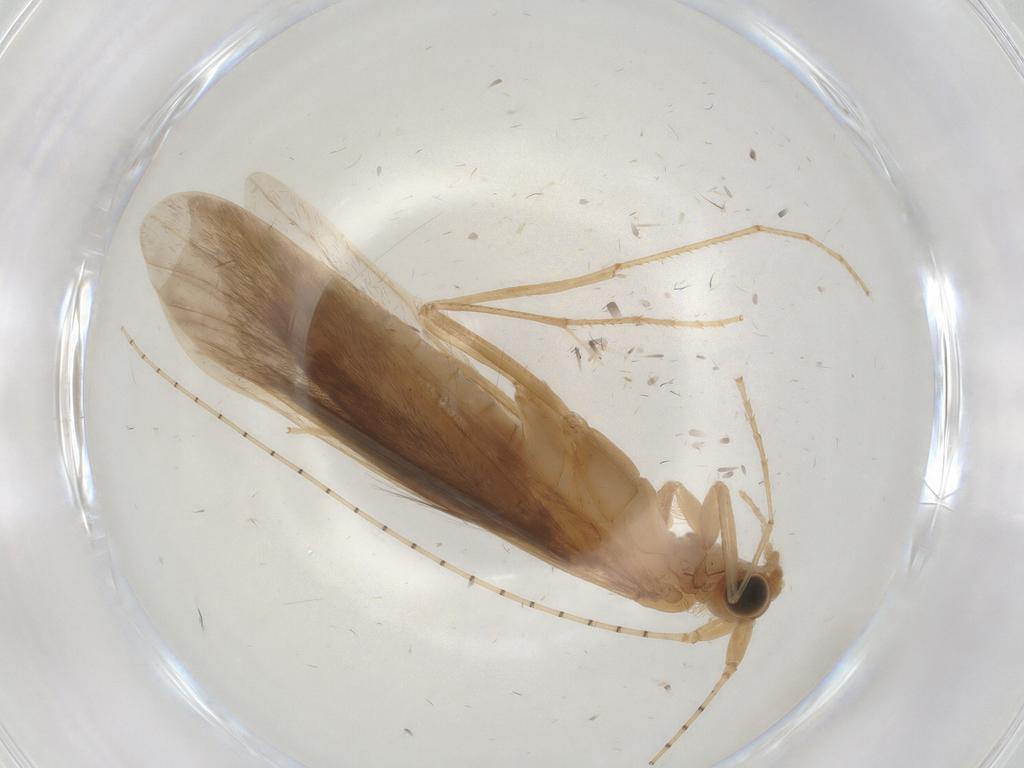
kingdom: Animalia
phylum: Arthropoda
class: Insecta
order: Trichoptera
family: Leptoceridae
